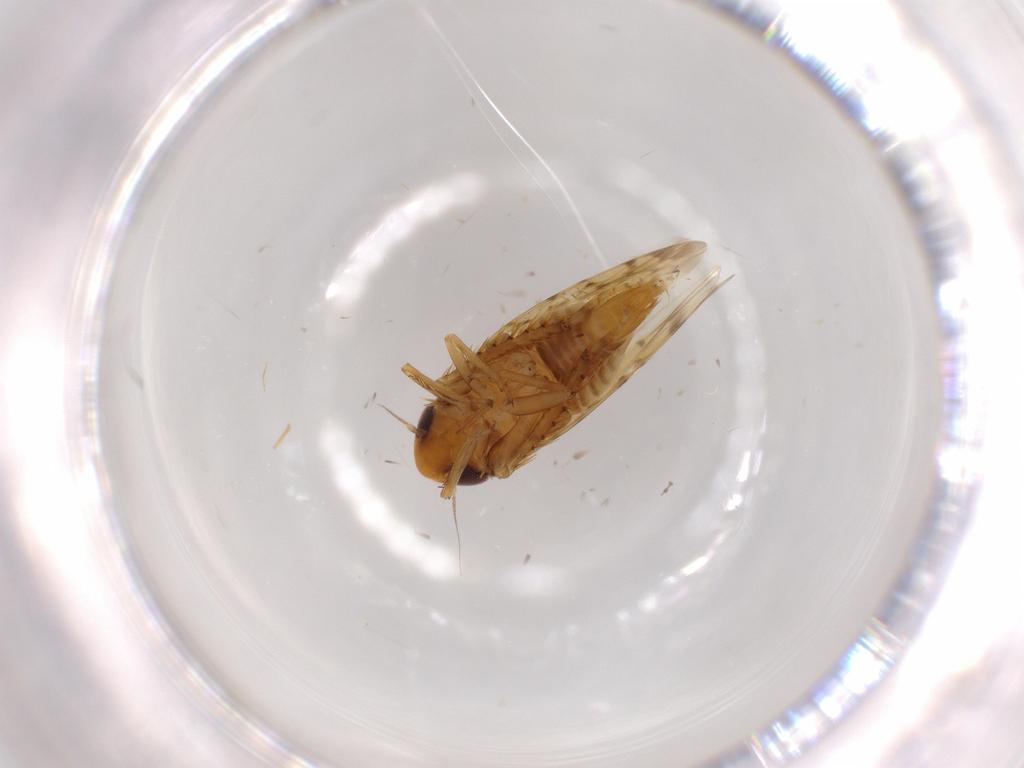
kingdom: Animalia
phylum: Arthropoda
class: Insecta
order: Hemiptera
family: Cicadellidae
